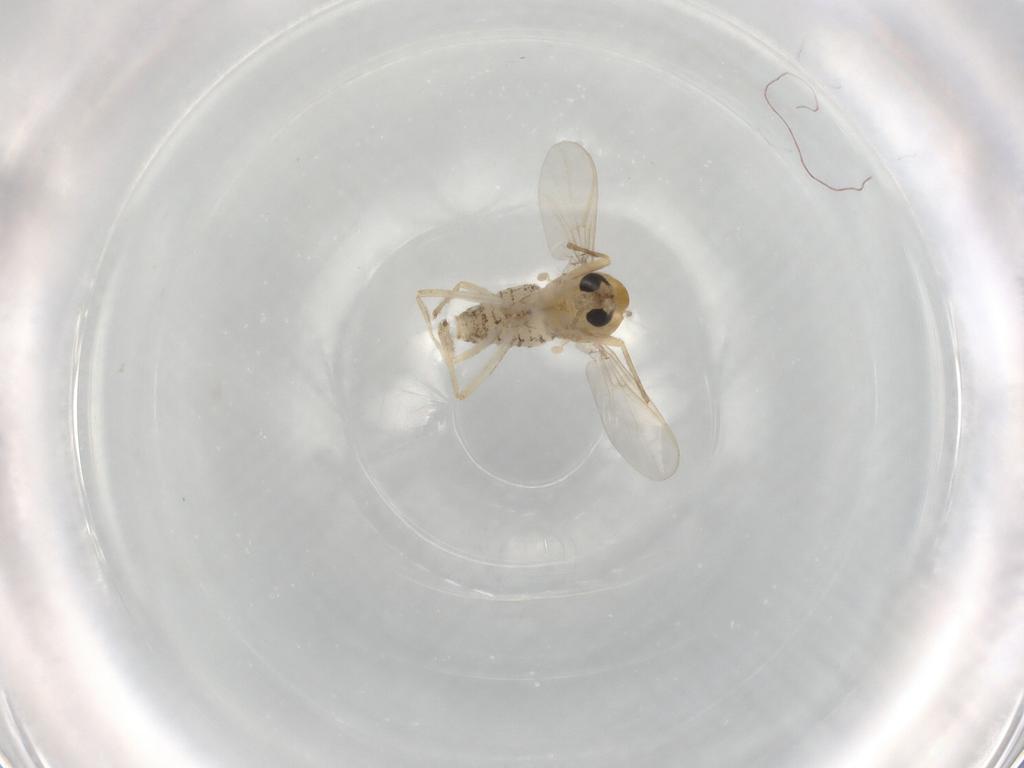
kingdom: Animalia
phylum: Arthropoda
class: Insecta
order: Diptera
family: Chironomidae
